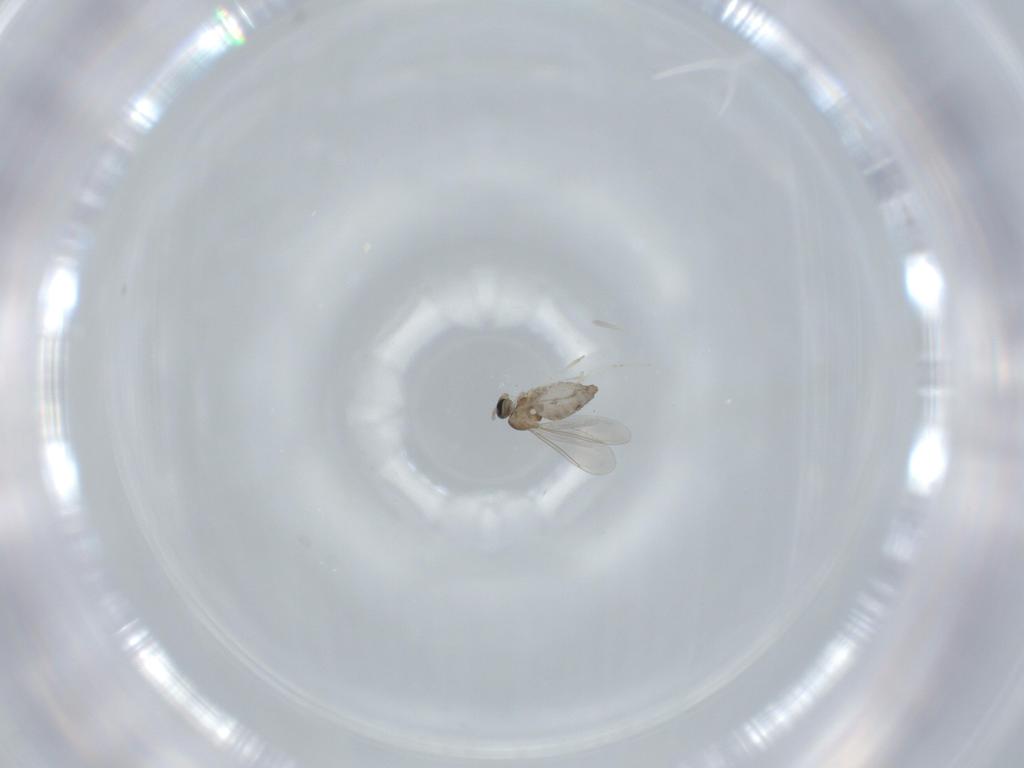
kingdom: Animalia
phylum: Arthropoda
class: Insecta
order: Diptera
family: Cecidomyiidae
